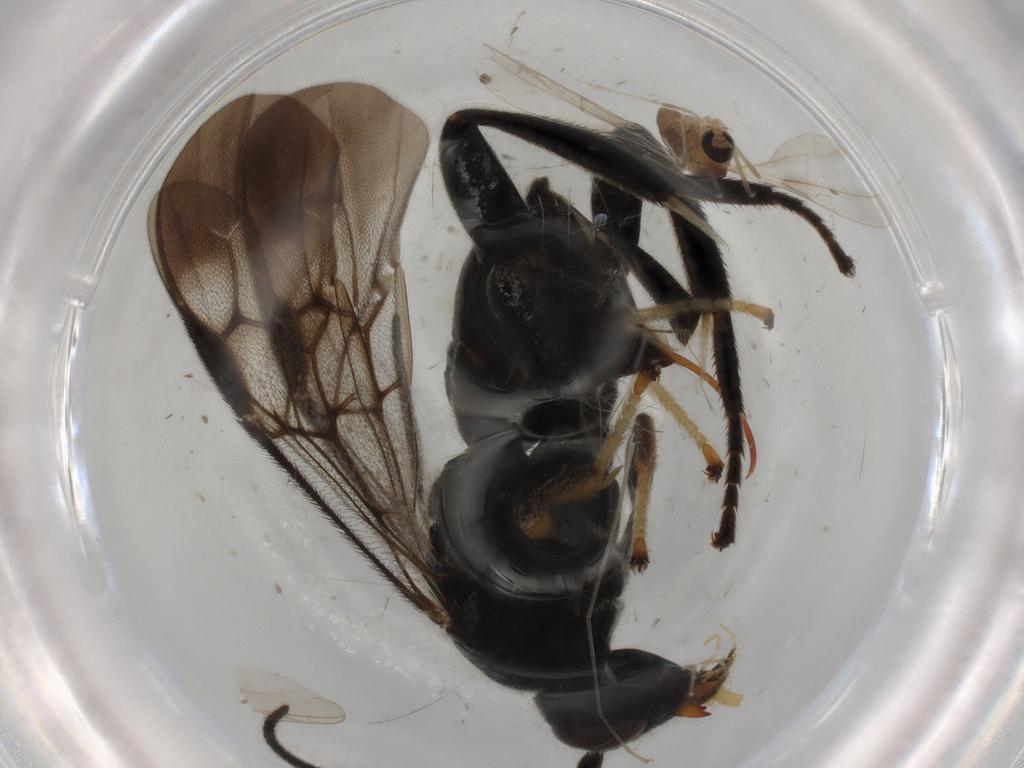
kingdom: Animalia
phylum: Arthropoda
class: Insecta
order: Diptera
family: Cecidomyiidae
